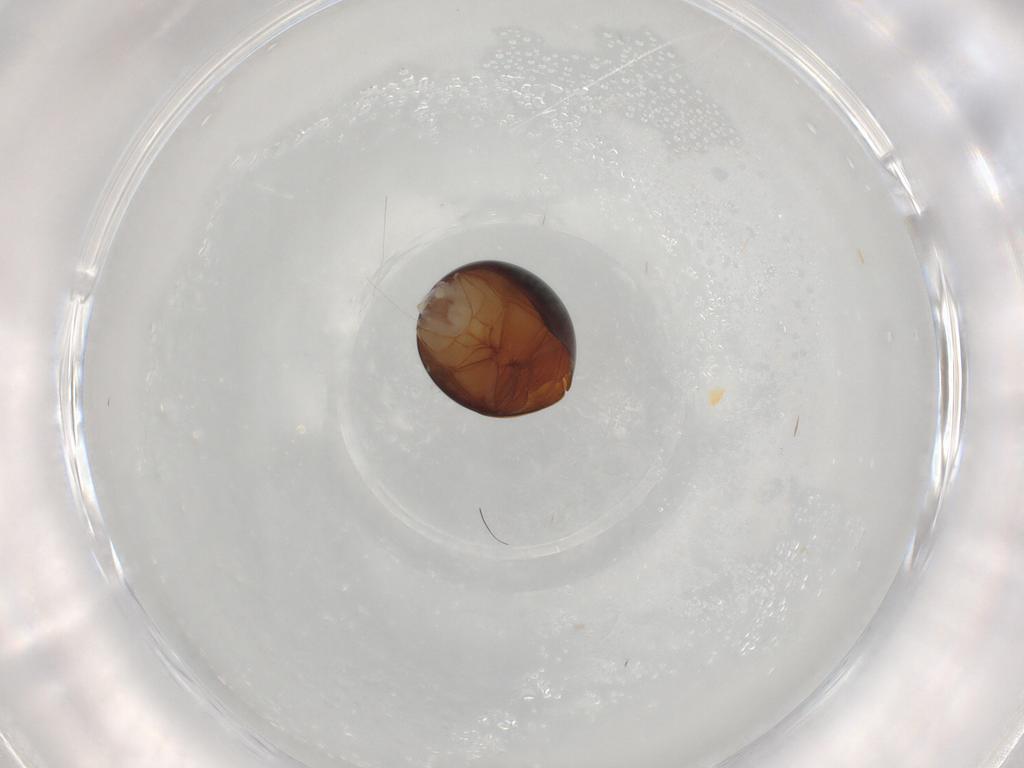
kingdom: Animalia
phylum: Arthropoda
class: Insecta
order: Coleoptera
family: Leiodidae
